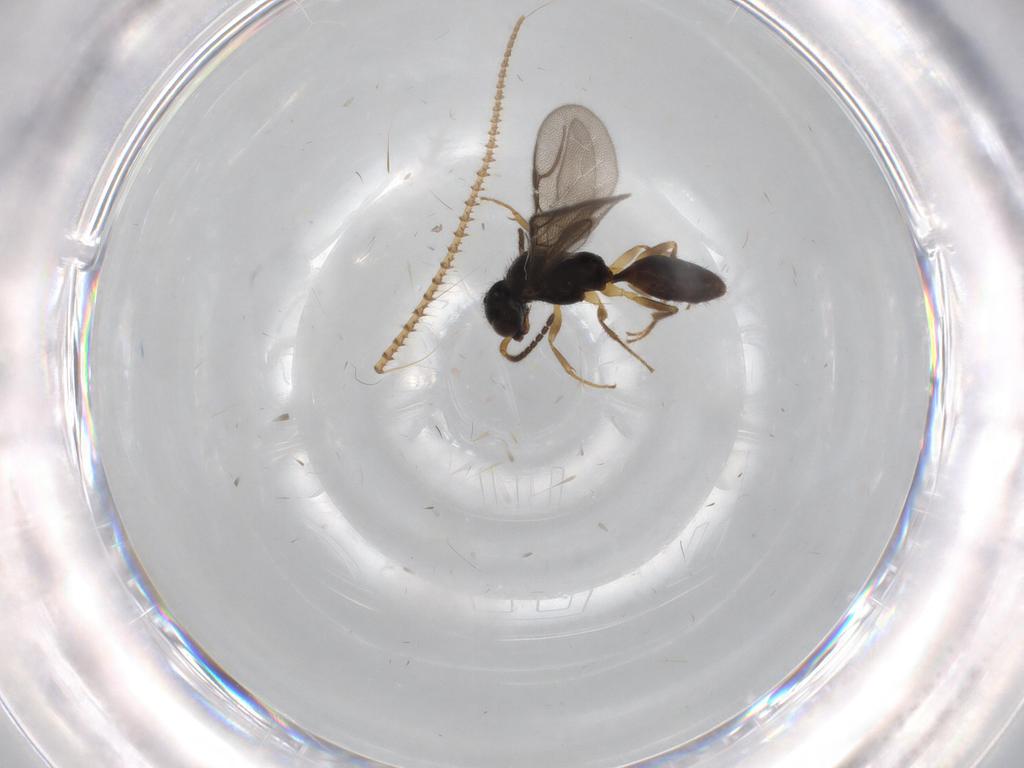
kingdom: Animalia
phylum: Arthropoda
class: Insecta
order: Hymenoptera
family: Bethylidae
